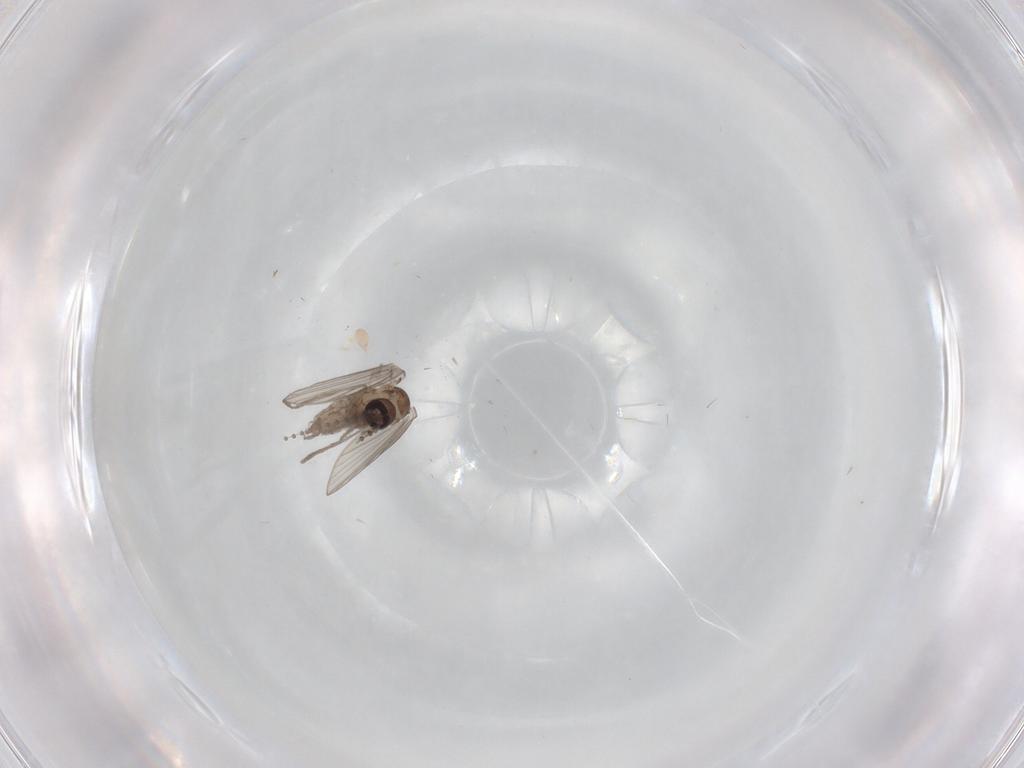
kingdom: Animalia
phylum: Arthropoda
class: Insecta
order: Diptera
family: Psychodidae
